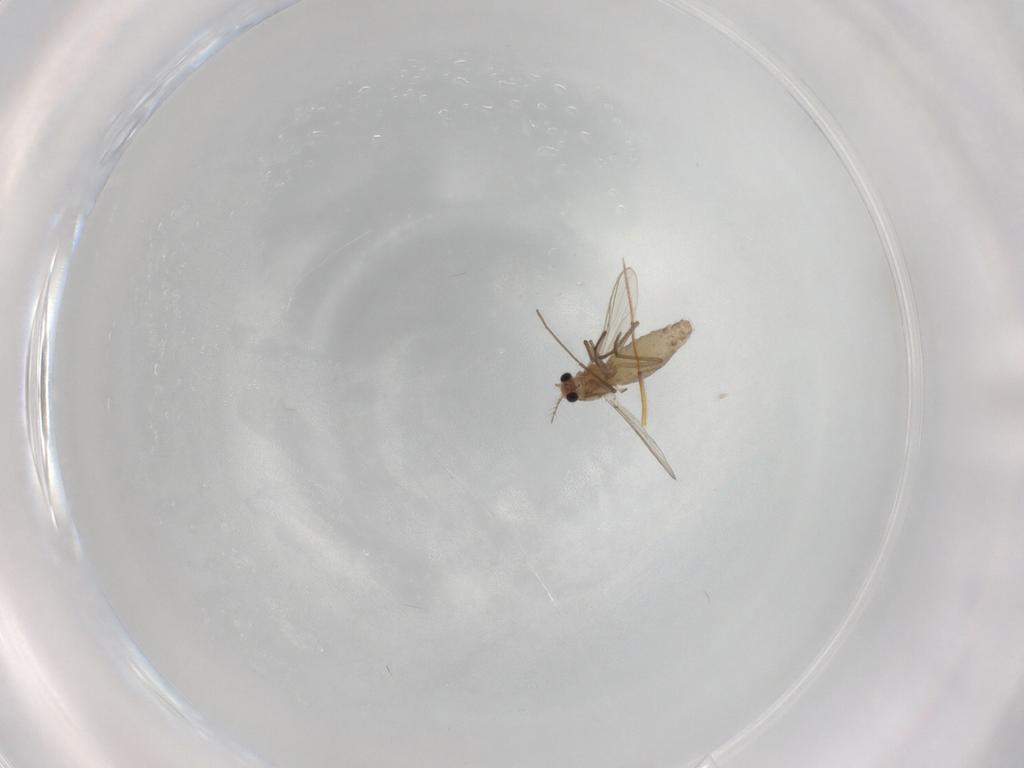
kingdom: Animalia
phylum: Arthropoda
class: Insecta
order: Diptera
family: Chironomidae
